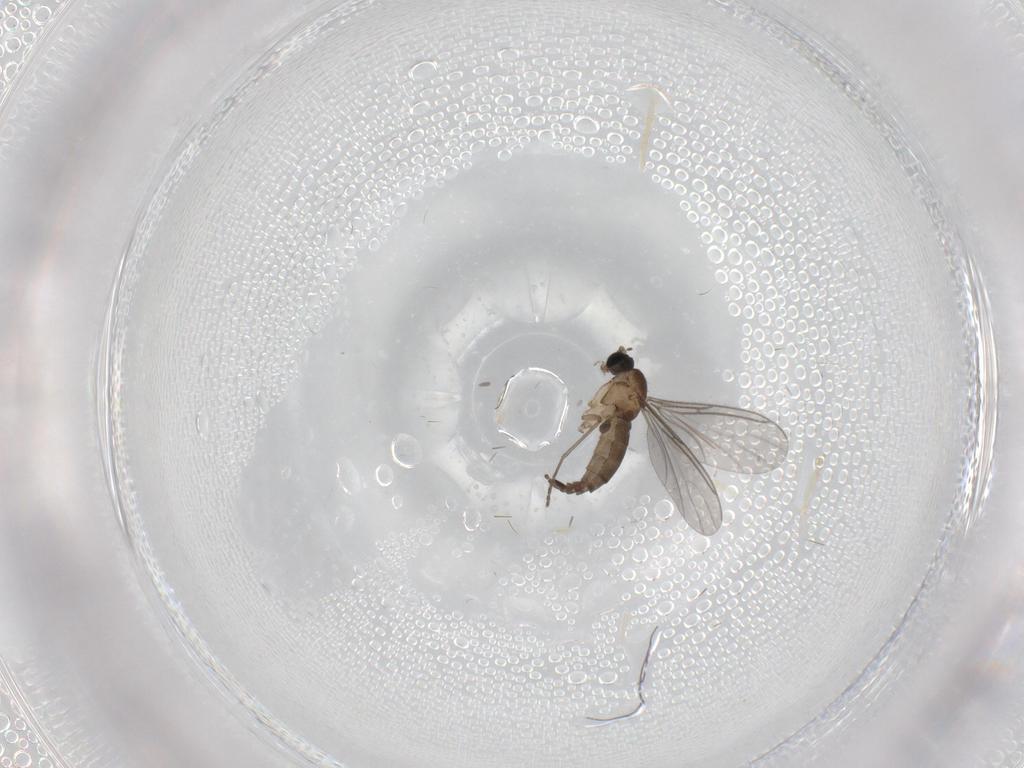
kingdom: Animalia
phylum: Arthropoda
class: Insecta
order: Diptera
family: Sciaridae
